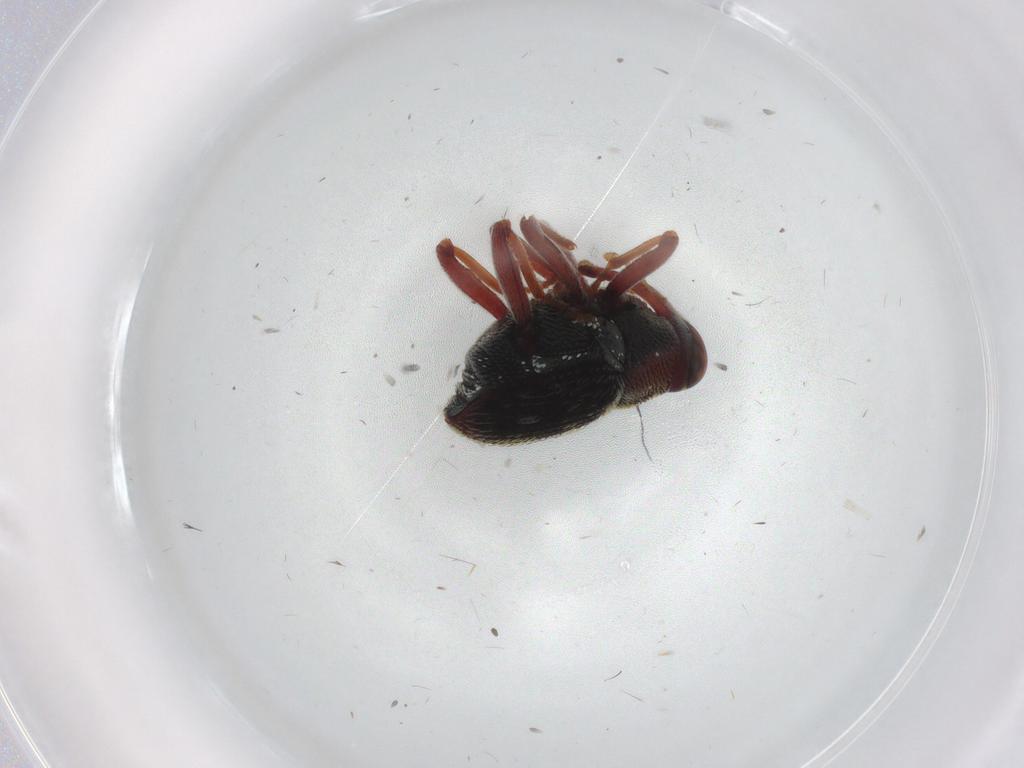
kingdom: Animalia
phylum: Arthropoda
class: Insecta
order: Coleoptera
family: Curculionidae
